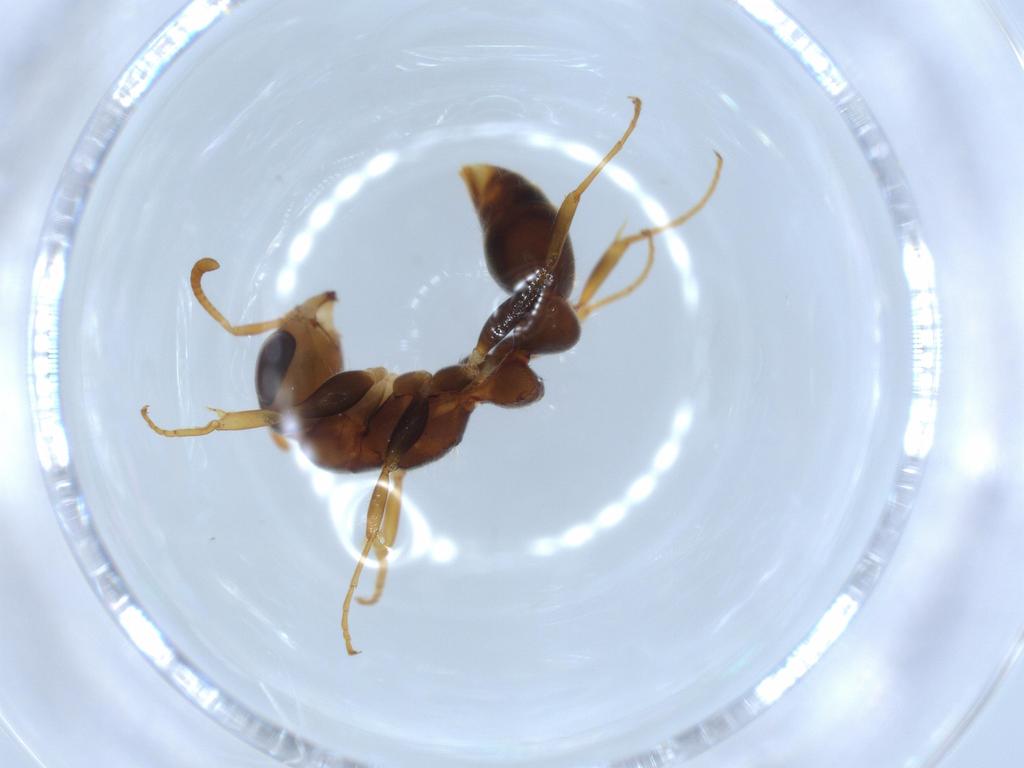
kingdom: Animalia
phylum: Arthropoda
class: Insecta
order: Hymenoptera
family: Formicidae
